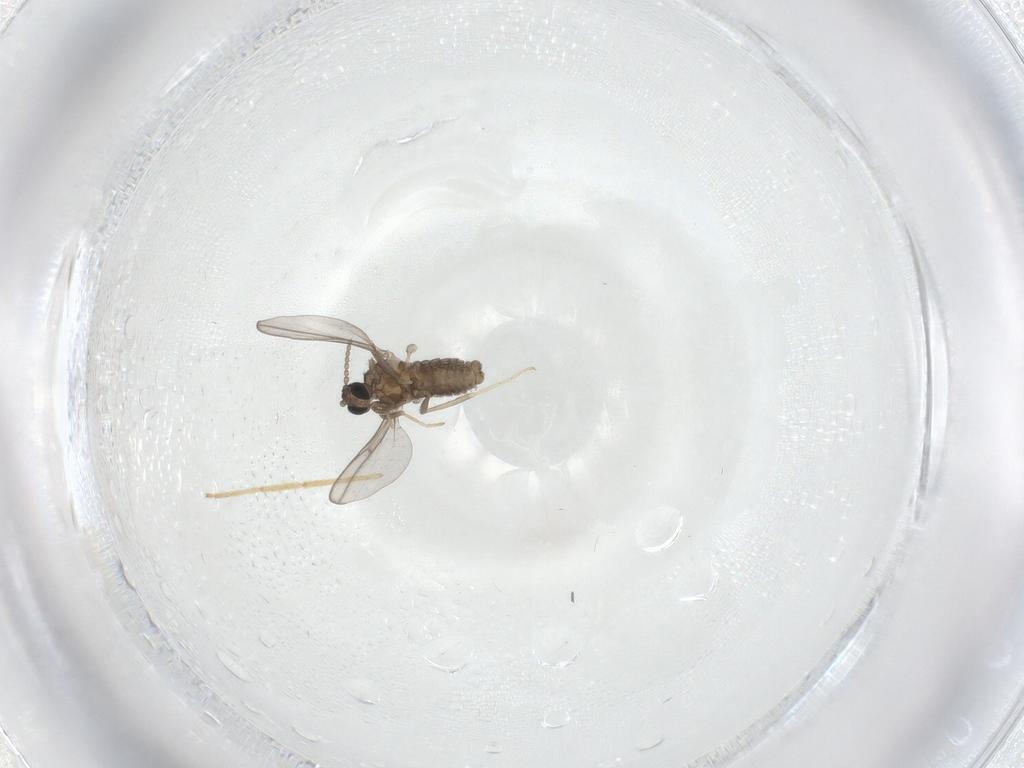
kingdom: Animalia
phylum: Arthropoda
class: Insecta
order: Diptera
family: Cecidomyiidae
